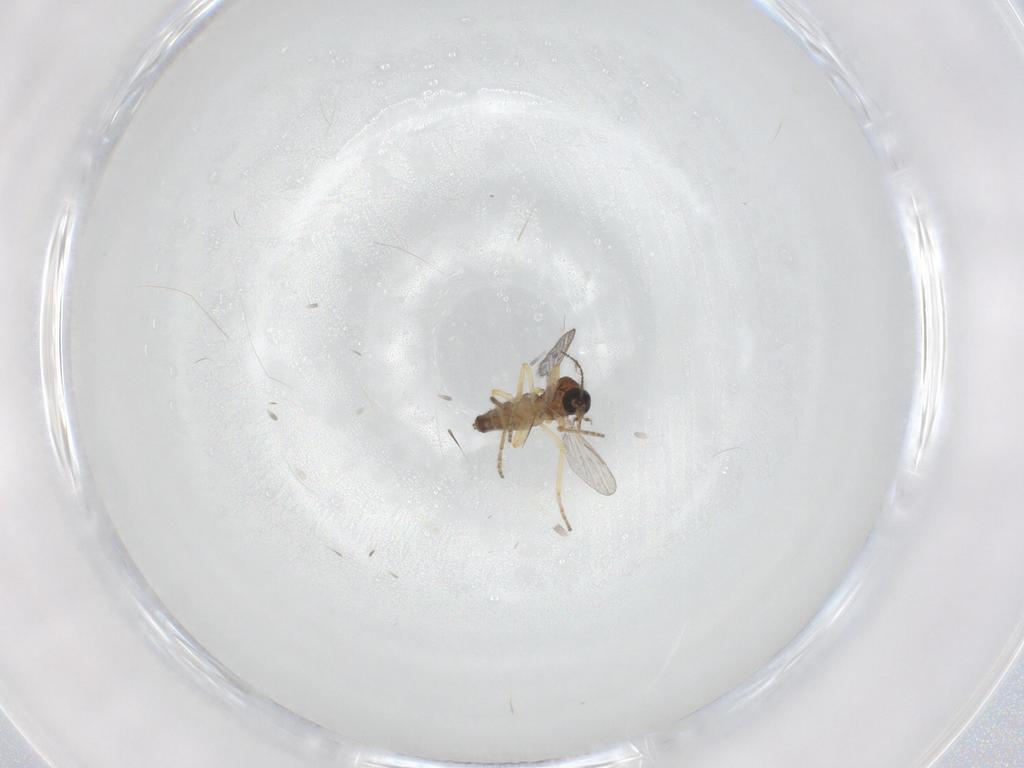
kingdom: Animalia
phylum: Arthropoda
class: Insecta
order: Diptera
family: Ceratopogonidae
